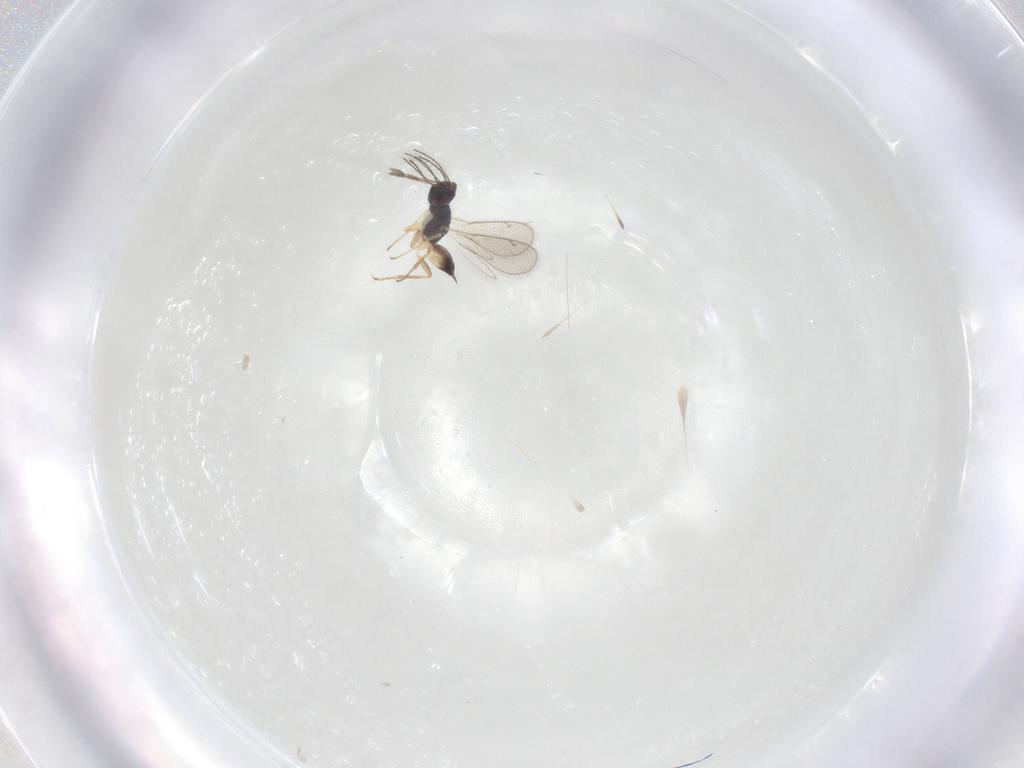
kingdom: Animalia
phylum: Arthropoda
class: Insecta
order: Hymenoptera
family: Eulophidae
